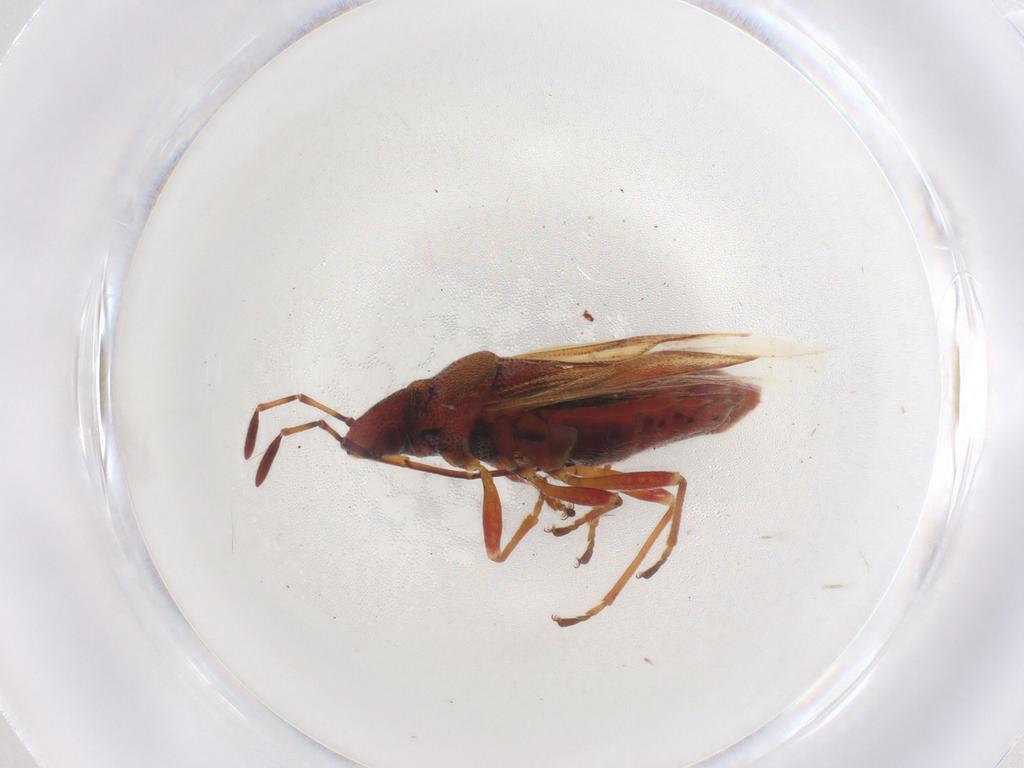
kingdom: Animalia
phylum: Arthropoda
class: Insecta
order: Hemiptera
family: Lygaeidae
